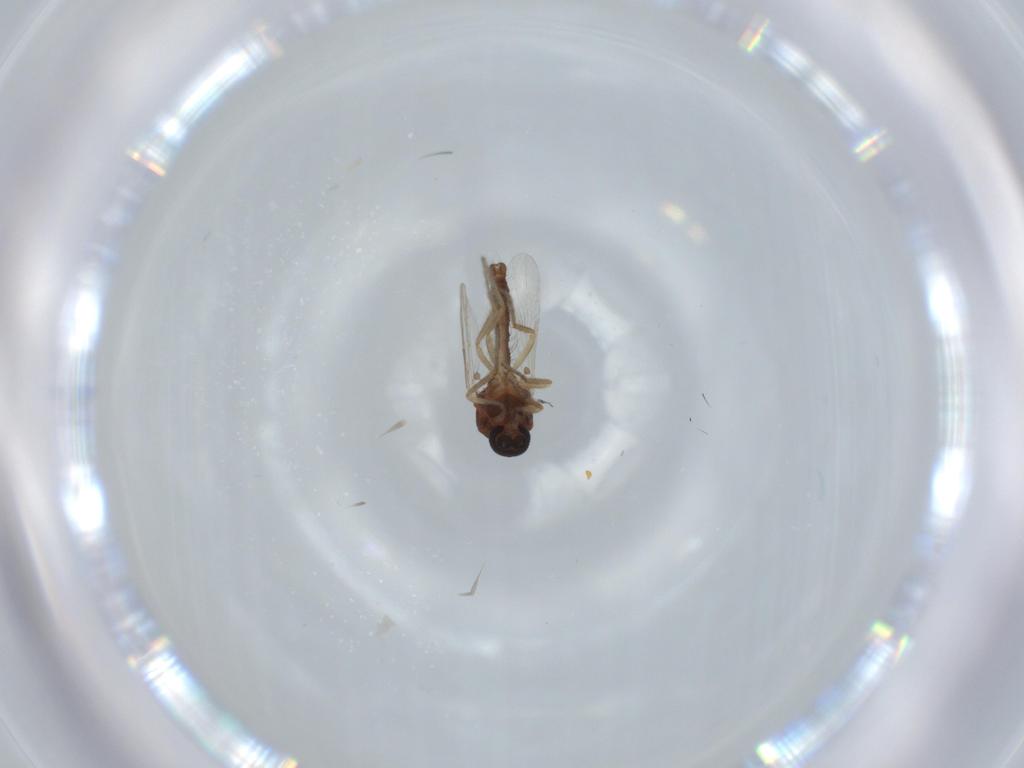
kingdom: Animalia
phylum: Arthropoda
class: Insecta
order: Diptera
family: Ceratopogonidae
